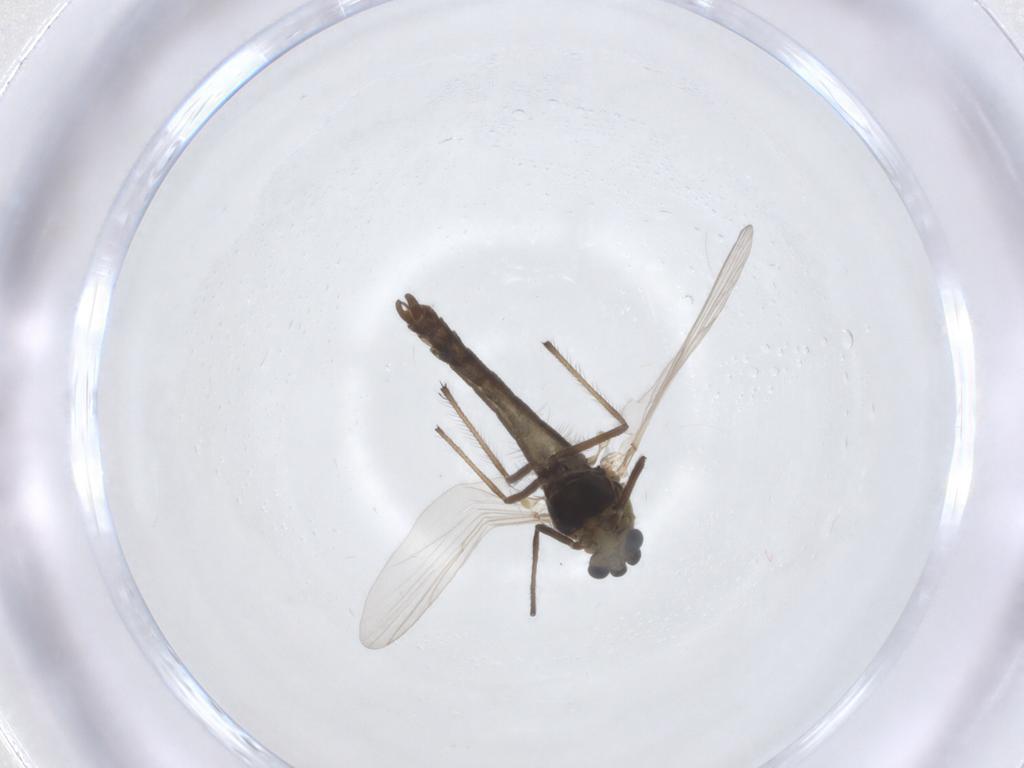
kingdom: Animalia
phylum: Arthropoda
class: Insecta
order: Diptera
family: Chironomidae
